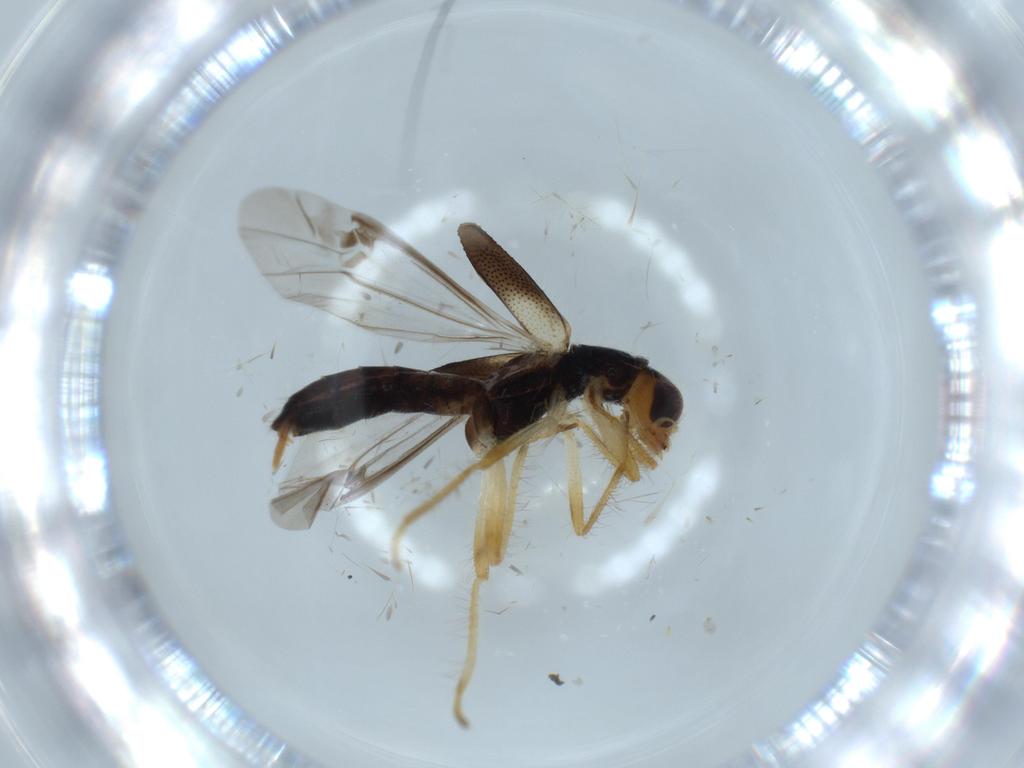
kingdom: Animalia
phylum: Arthropoda
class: Insecta
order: Coleoptera
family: Cleridae
